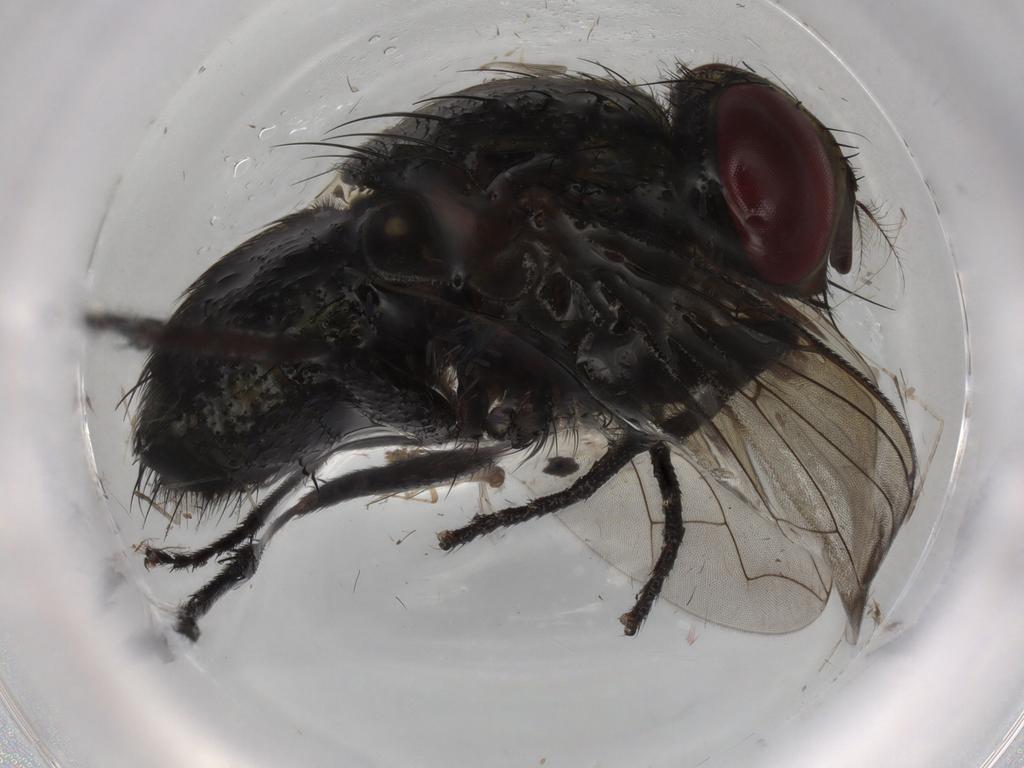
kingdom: Animalia
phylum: Arthropoda
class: Insecta
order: Diptera
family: Sarcophagidae
